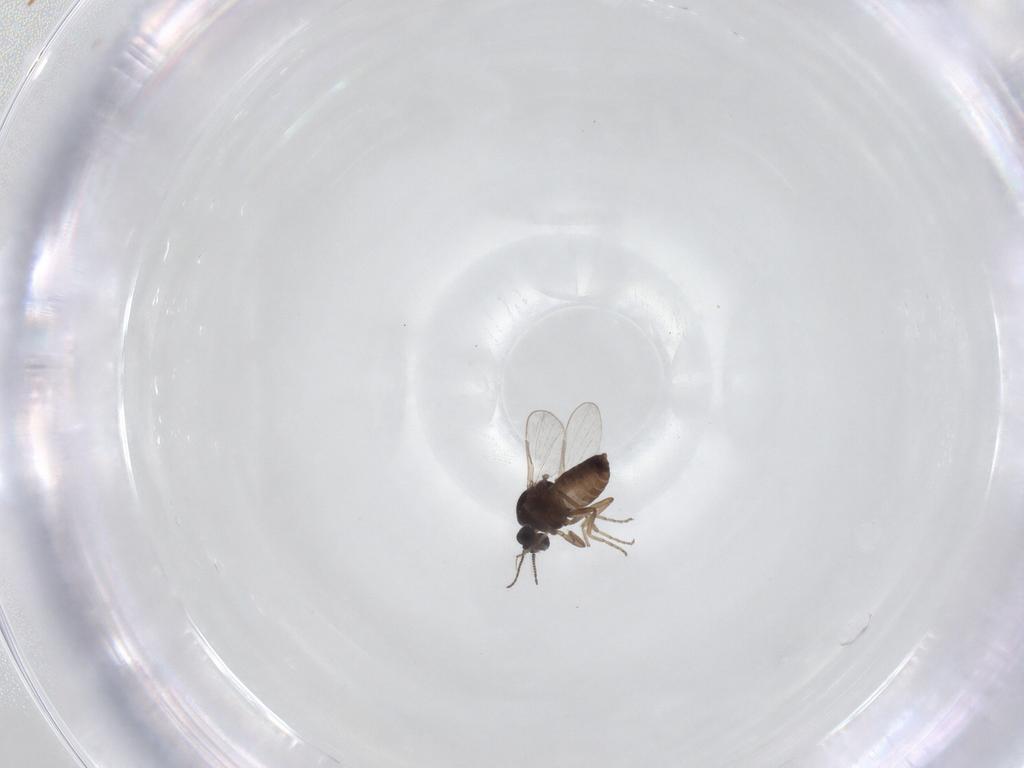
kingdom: Animalia
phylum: Arthropoda
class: Insecta
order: Diptera
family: Ceratopogonidae
